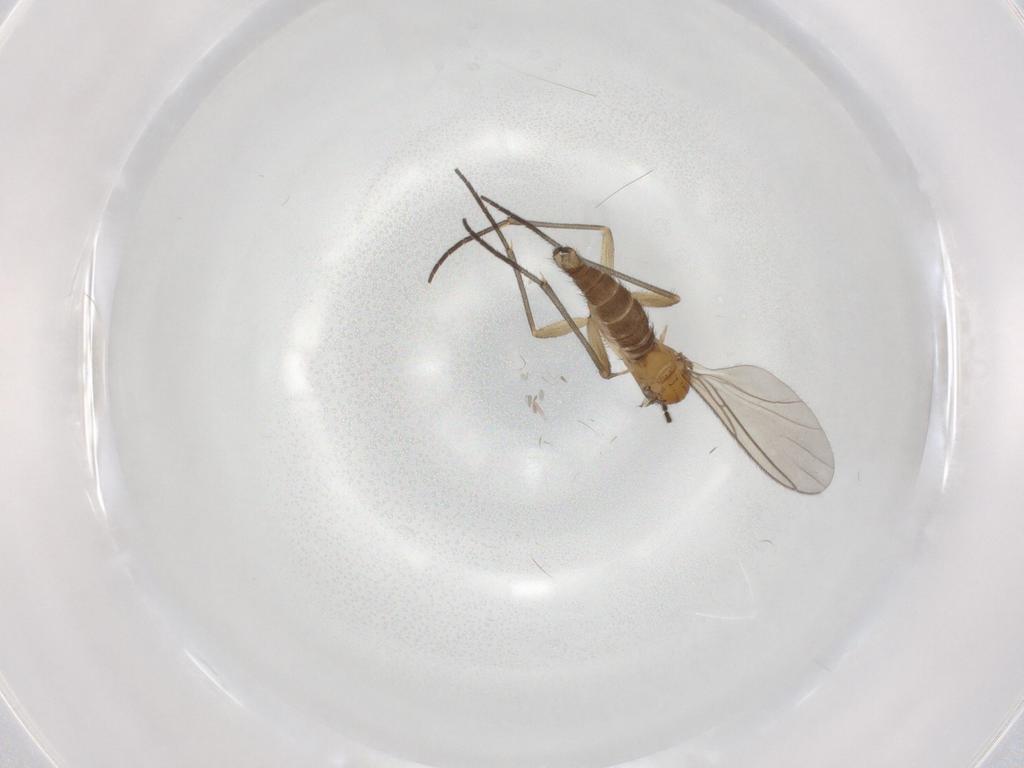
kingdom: Animalia
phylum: Arthropoda
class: Insecta
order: Diptera
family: Sciaridae
